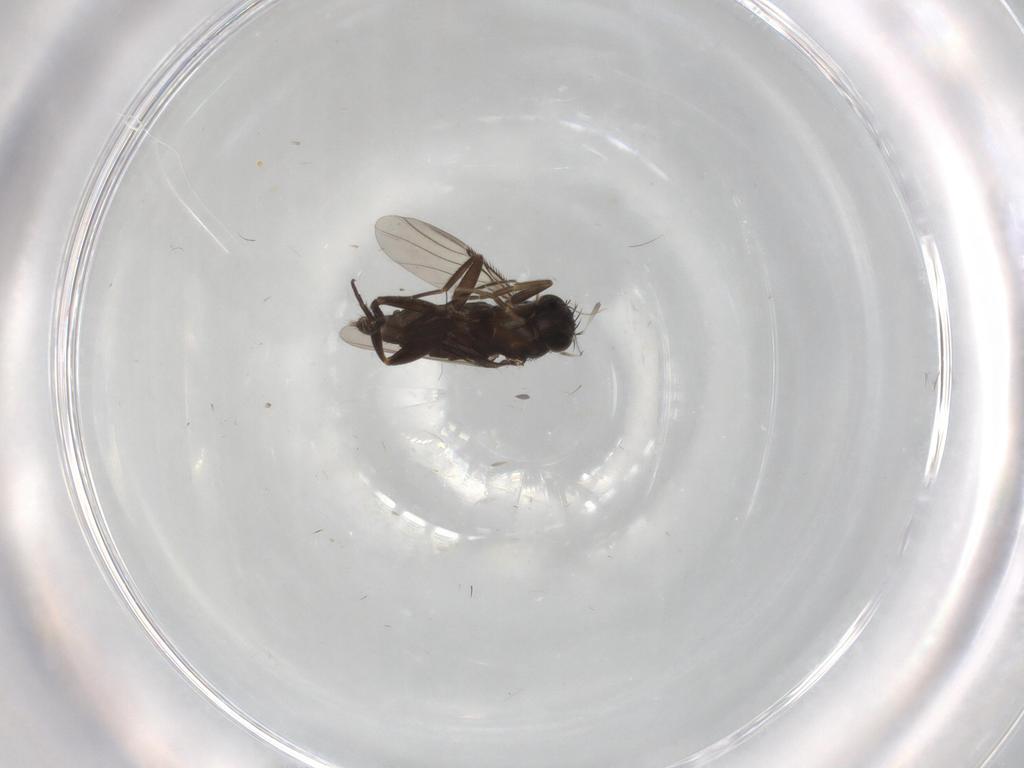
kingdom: Animalia
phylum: Arthropoda
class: Insecta
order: Diptera
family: Phoridae
